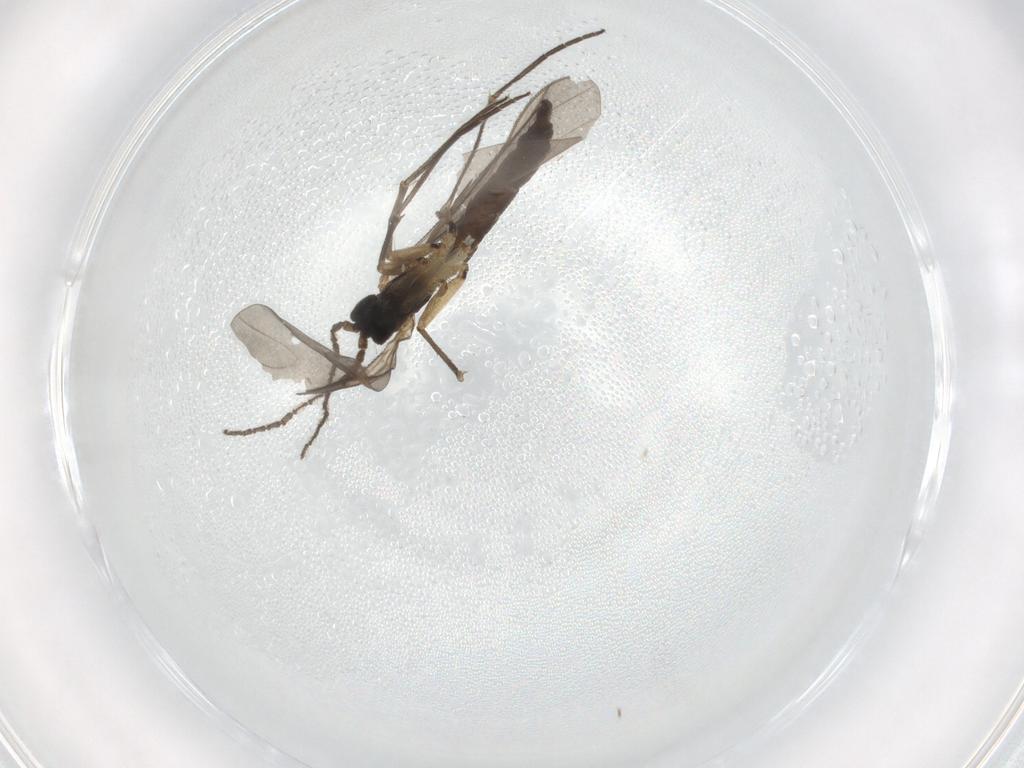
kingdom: Animalia
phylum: Arthropoda
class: Insecta
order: Diptera
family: Sciaridae
